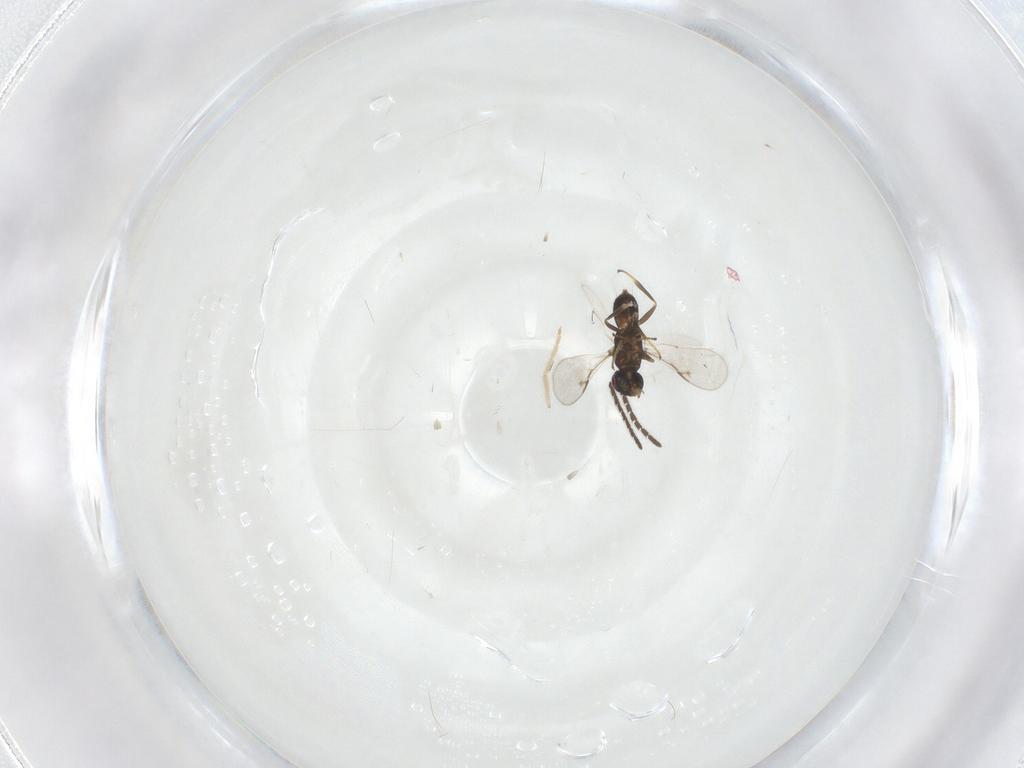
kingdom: Animalia
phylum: Arthropoda
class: Insecta
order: Hymenoptera
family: Encyrtidae
